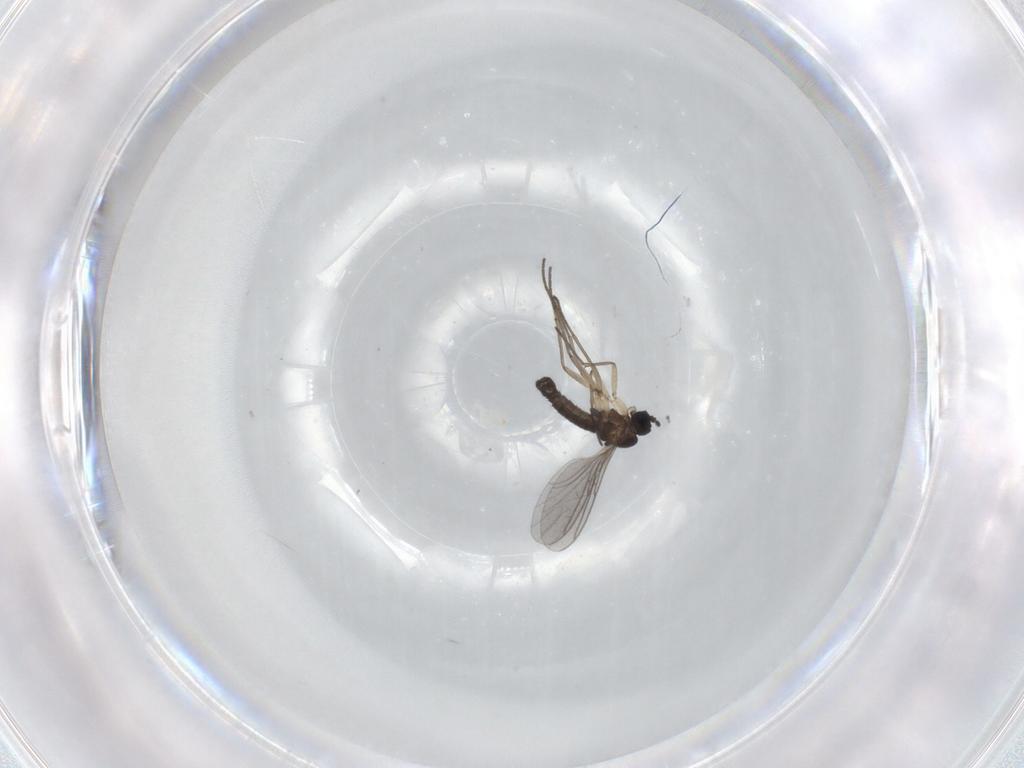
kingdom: Animalia
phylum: Arthropoda
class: Insecta
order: Diptera
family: Sciaridae
